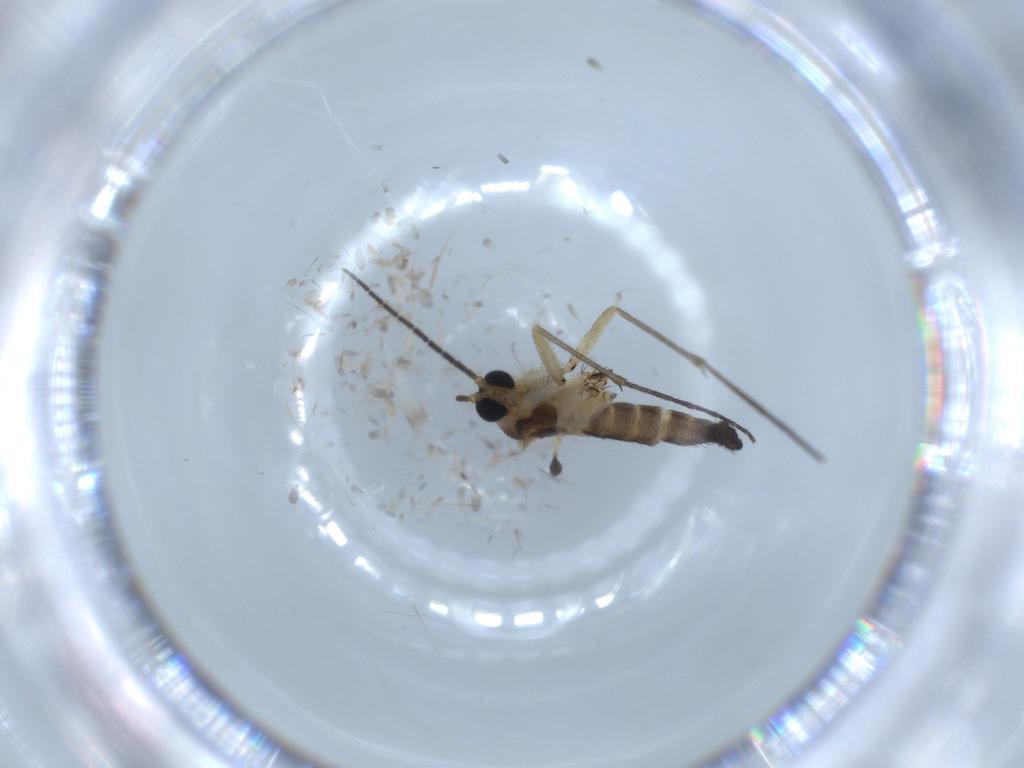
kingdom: Animalia
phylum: Arthropoda
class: Insecta
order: Diptera
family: Sciaridae
